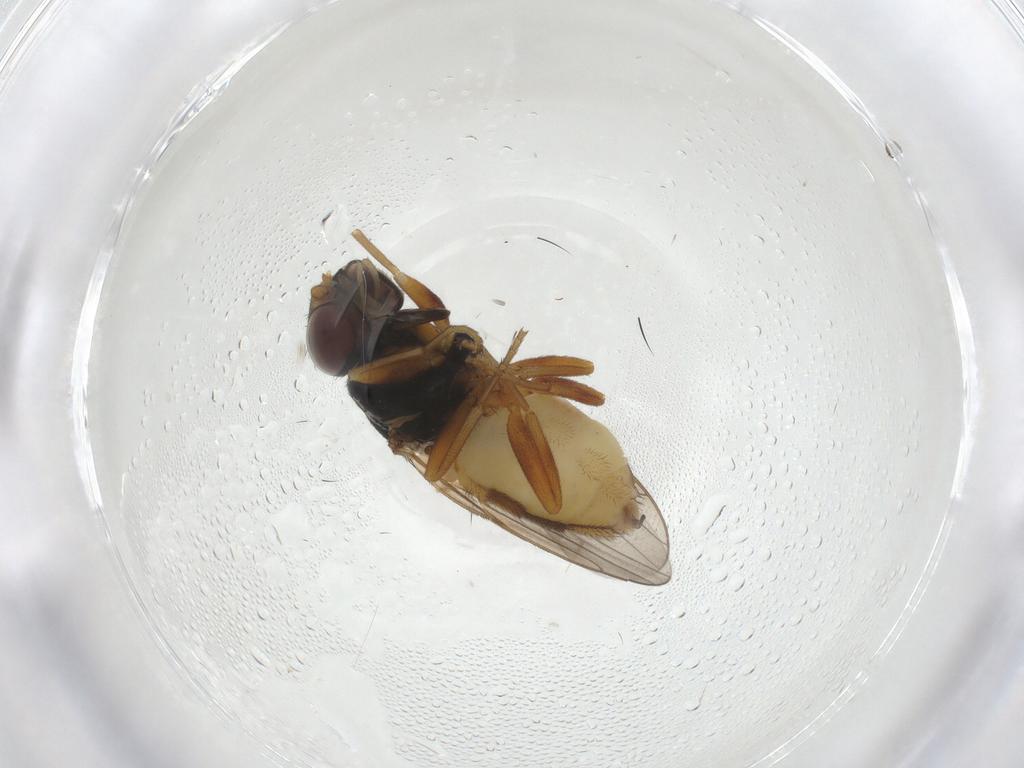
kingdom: Animalia
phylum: Arthropoda
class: Insecta
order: Diptera
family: Chloropidae
